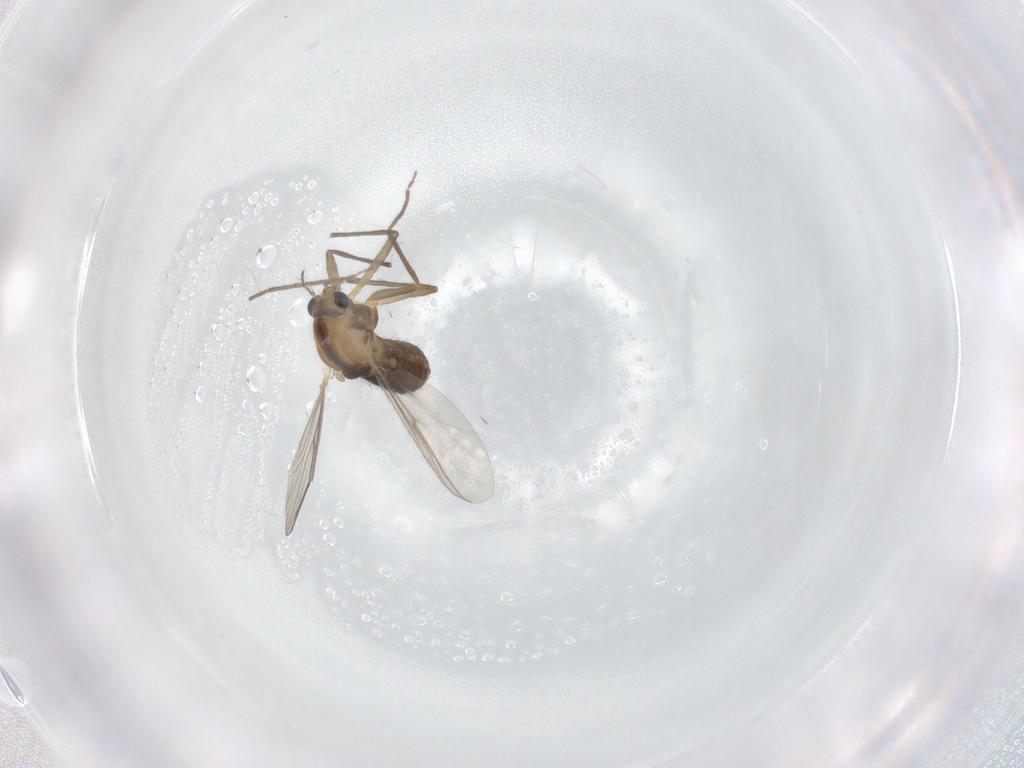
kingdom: Animalia
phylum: Arthropoda
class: Insecta
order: Diptera
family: Chironomidae
